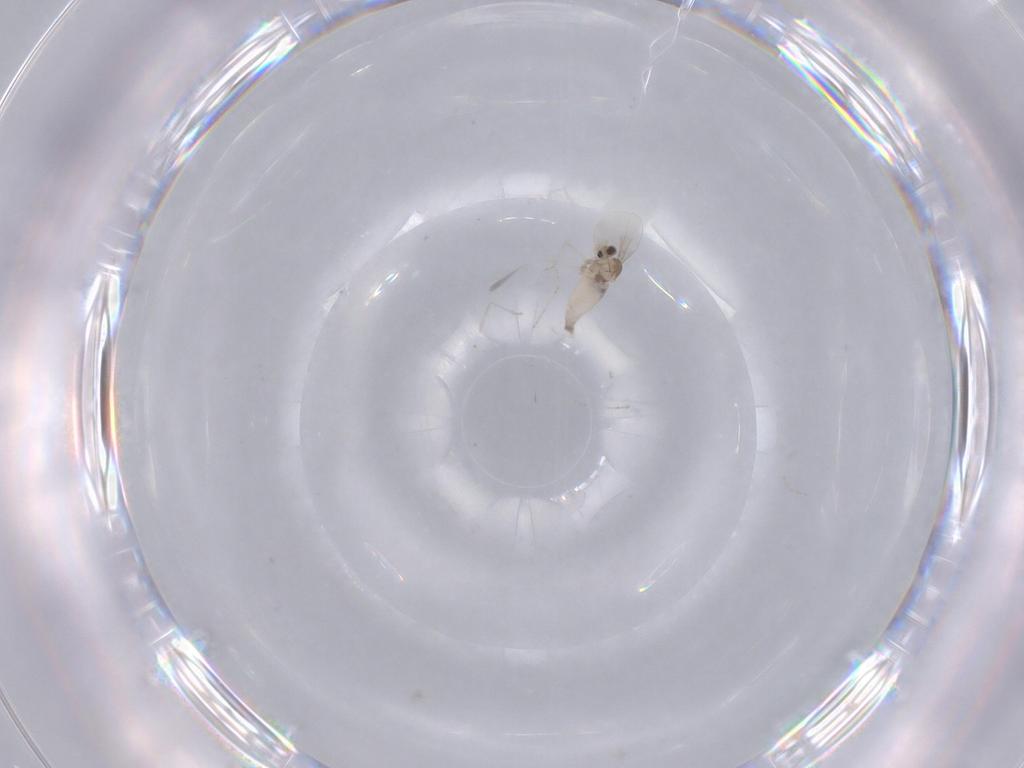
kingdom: Animalia
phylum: Arthropoda
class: Insecta
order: Diptera
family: Cecidomyiidae
